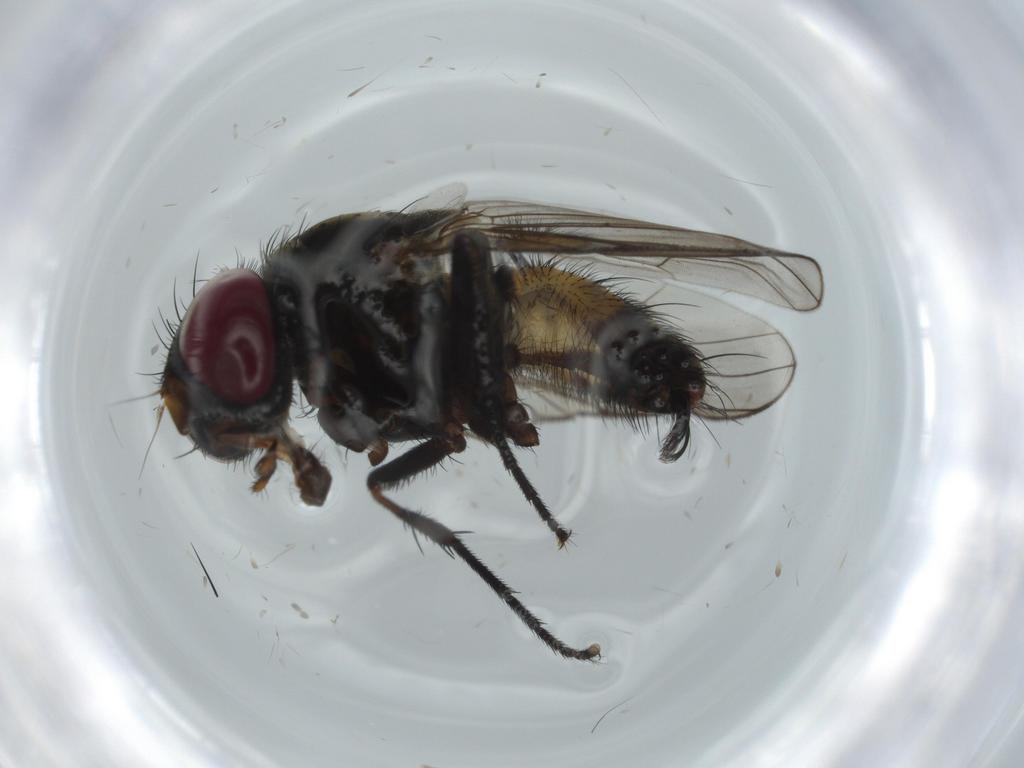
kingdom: Animalia
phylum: Arthropoda
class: Insecta
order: Diptera
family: Fannia
